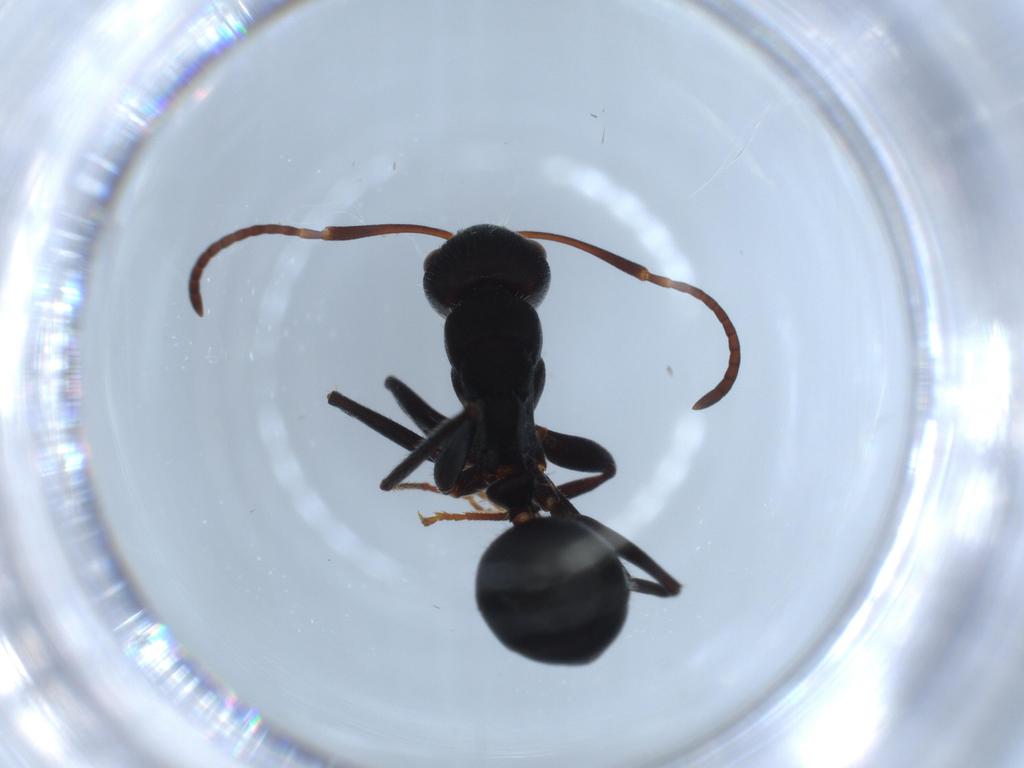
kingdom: Animalia
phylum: Arthropoda
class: Insecta
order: Hymenoptera
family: Formicidae
